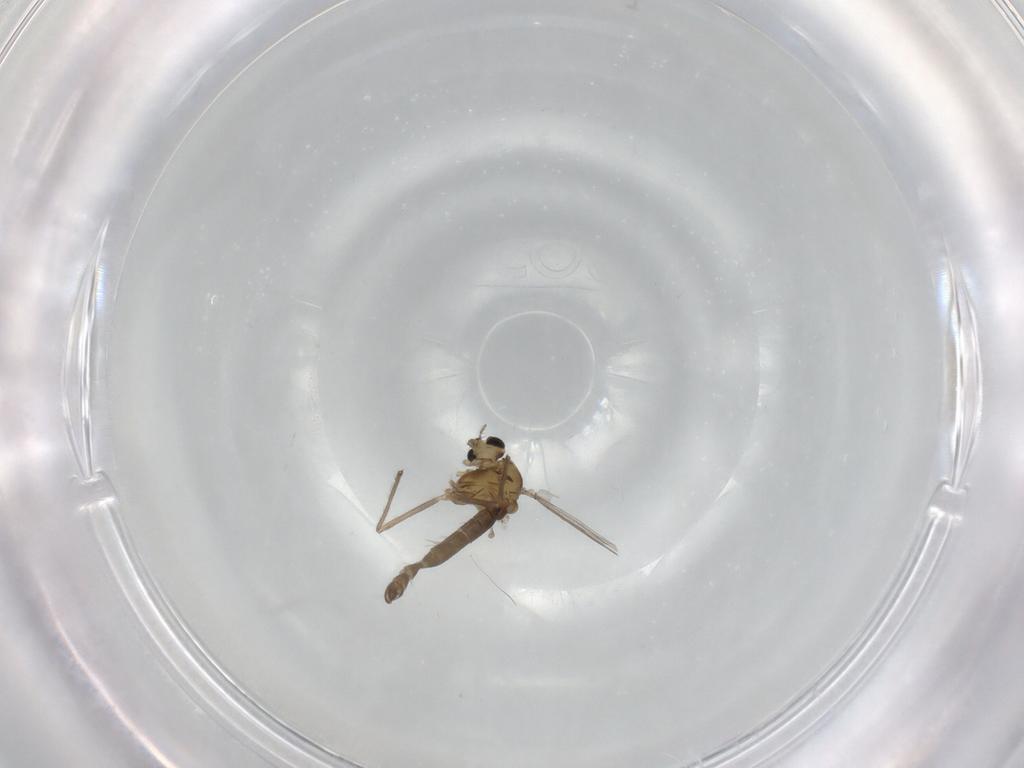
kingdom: Animalia
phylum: Arthropoda
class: Insecta
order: Diptera
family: Chironomidae
